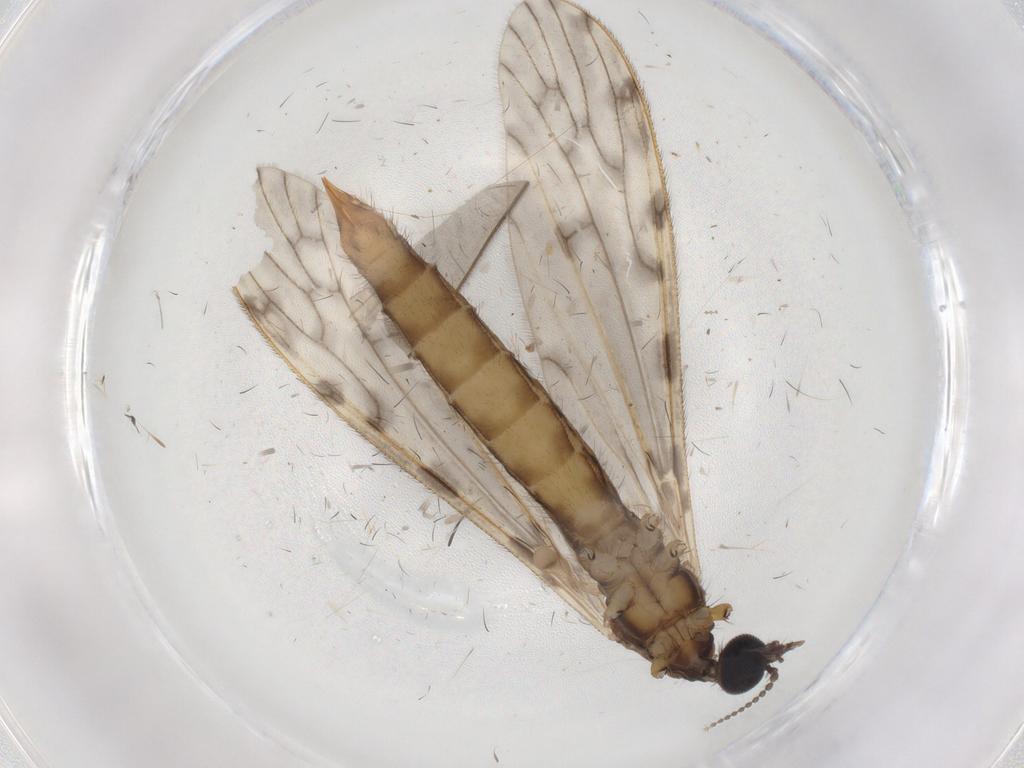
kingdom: Animalia
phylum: Arthropoda
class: Insecta
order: Diptera
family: Limoniidae
